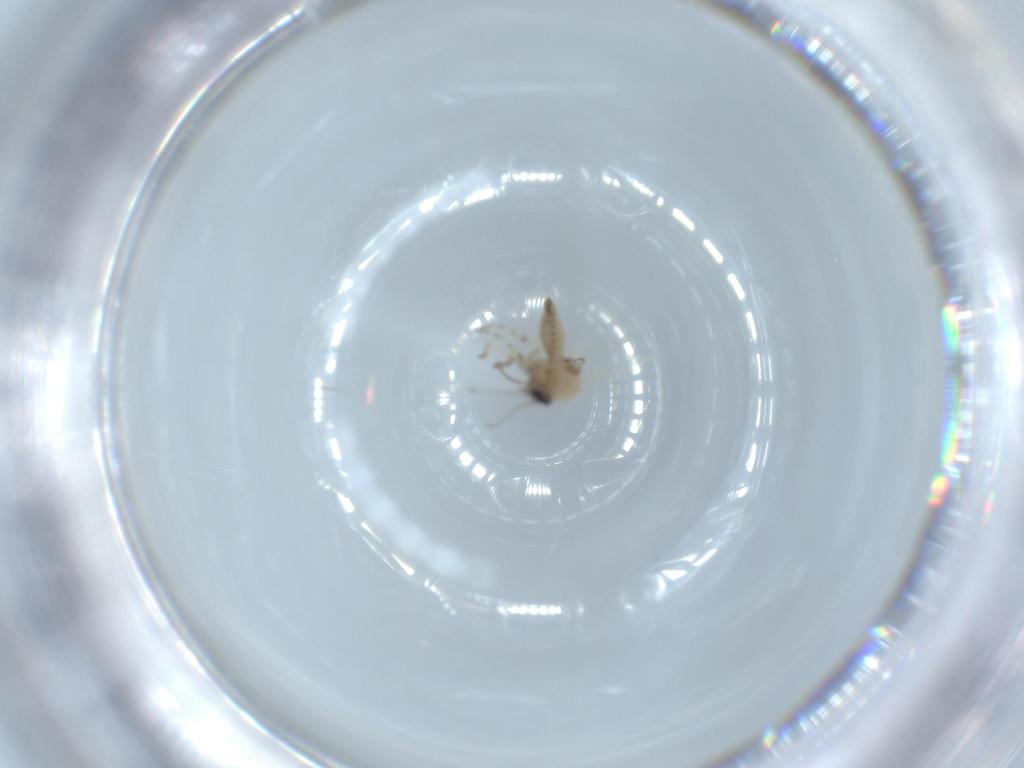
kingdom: Animalia
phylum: Arthropoda
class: Insecta
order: Diptera
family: Ceratopogonidae
